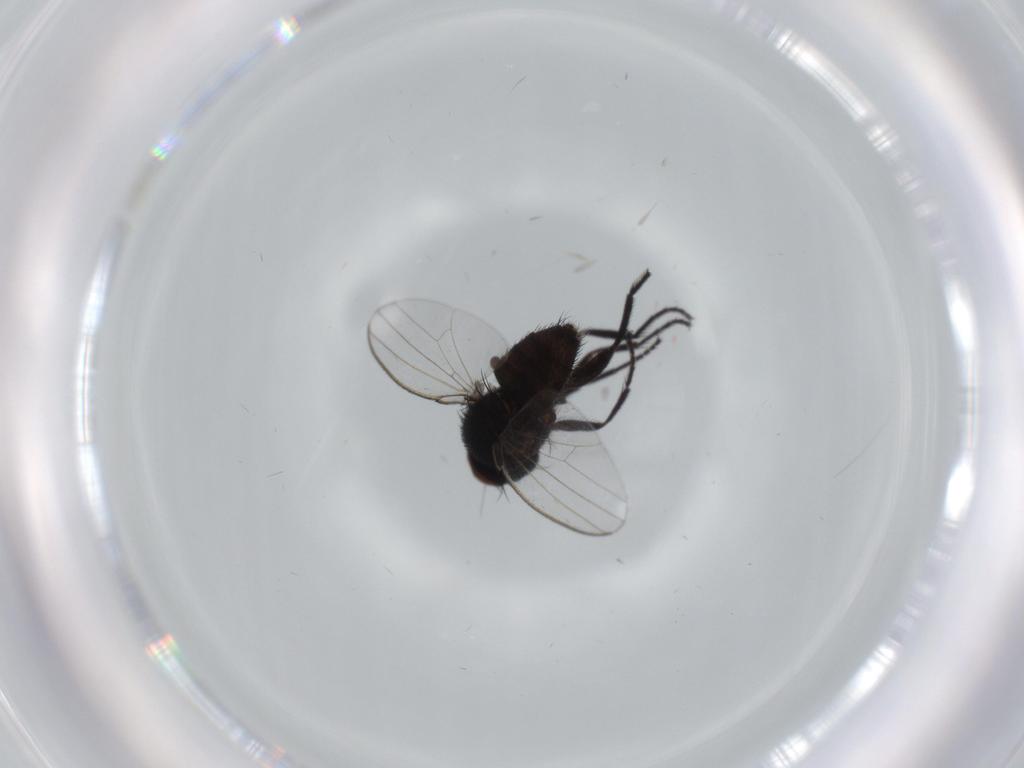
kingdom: Animalia
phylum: Arthropoda
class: Insecta
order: Diptera
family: Milichiidae
